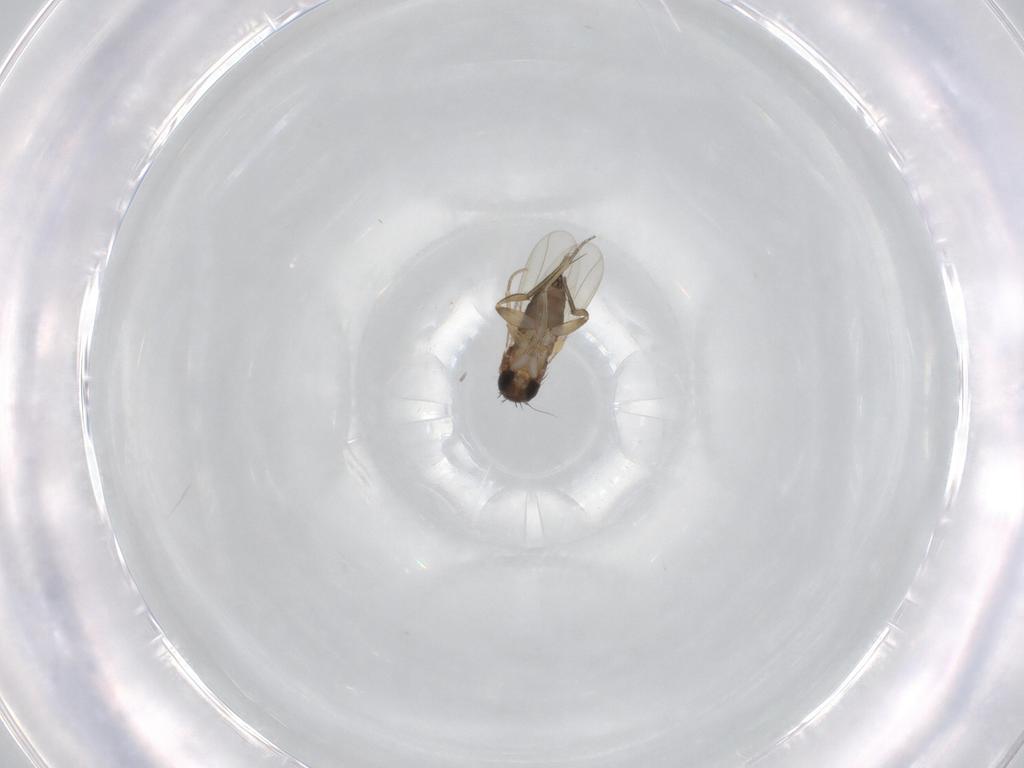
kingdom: Animalia
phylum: Arthropoda
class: Insecta
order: Diptera
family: Phoridae
